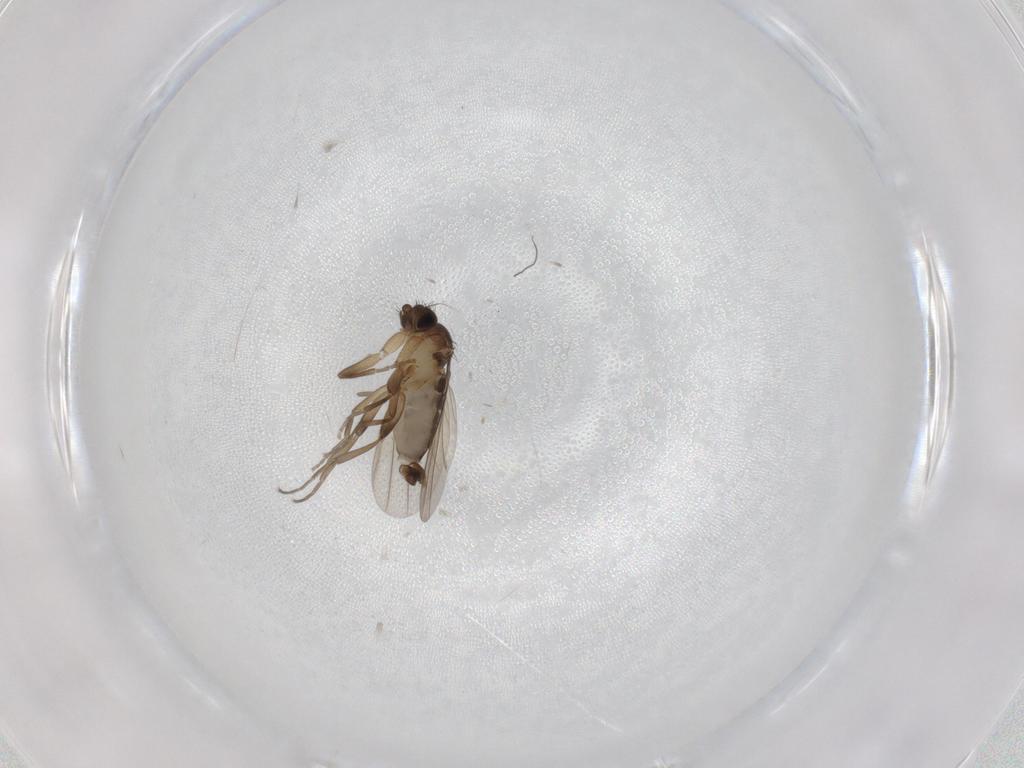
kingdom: Animalia
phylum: Arthropoda
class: Insecta
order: Diptera
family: Phoridae
